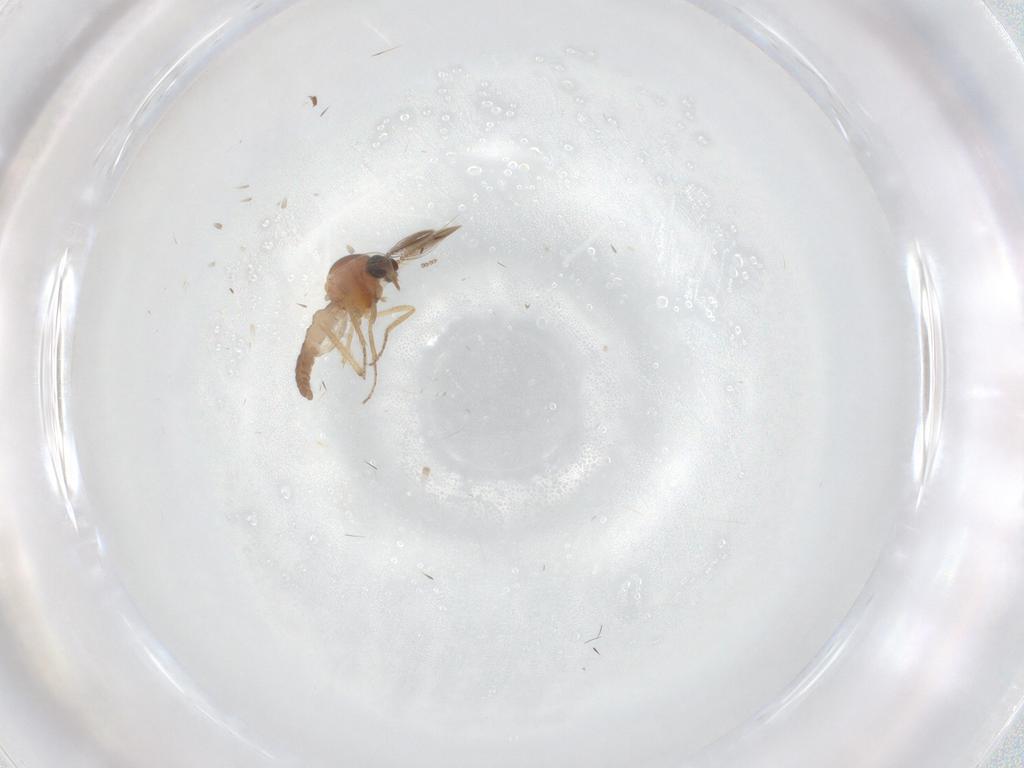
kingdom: Animalia
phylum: Arthropoda
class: Insecta
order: Diptera
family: Ceratopogonidae
